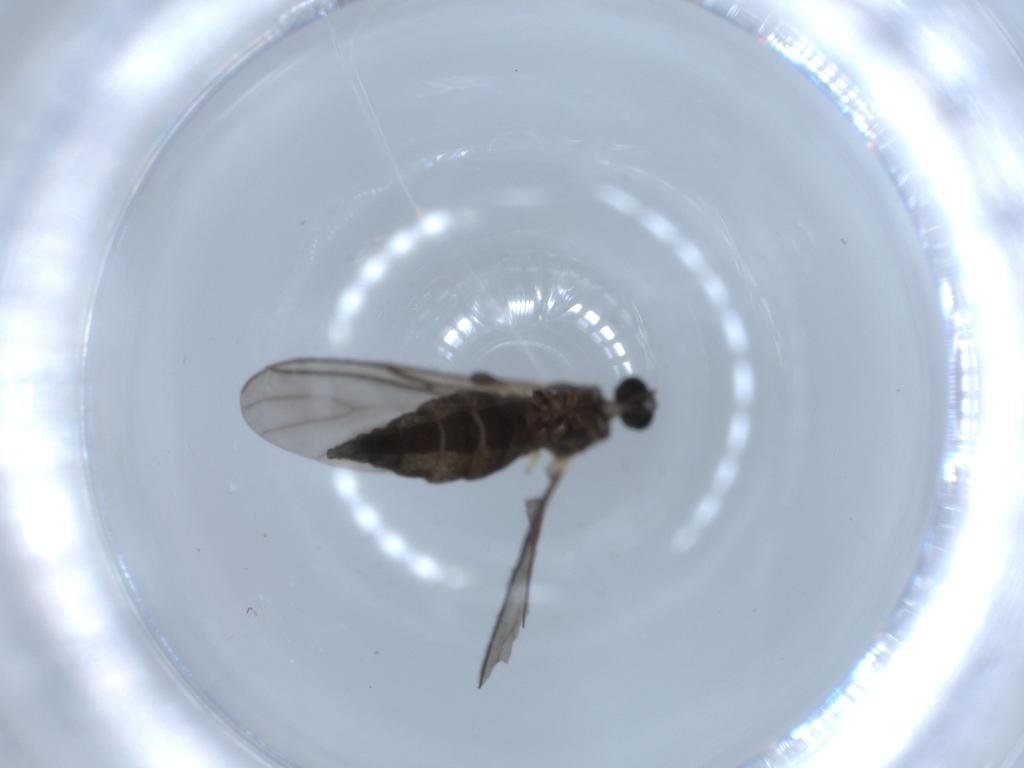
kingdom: Animalia
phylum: Arthropoda
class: Insecta
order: Diptera
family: Sciaridae
